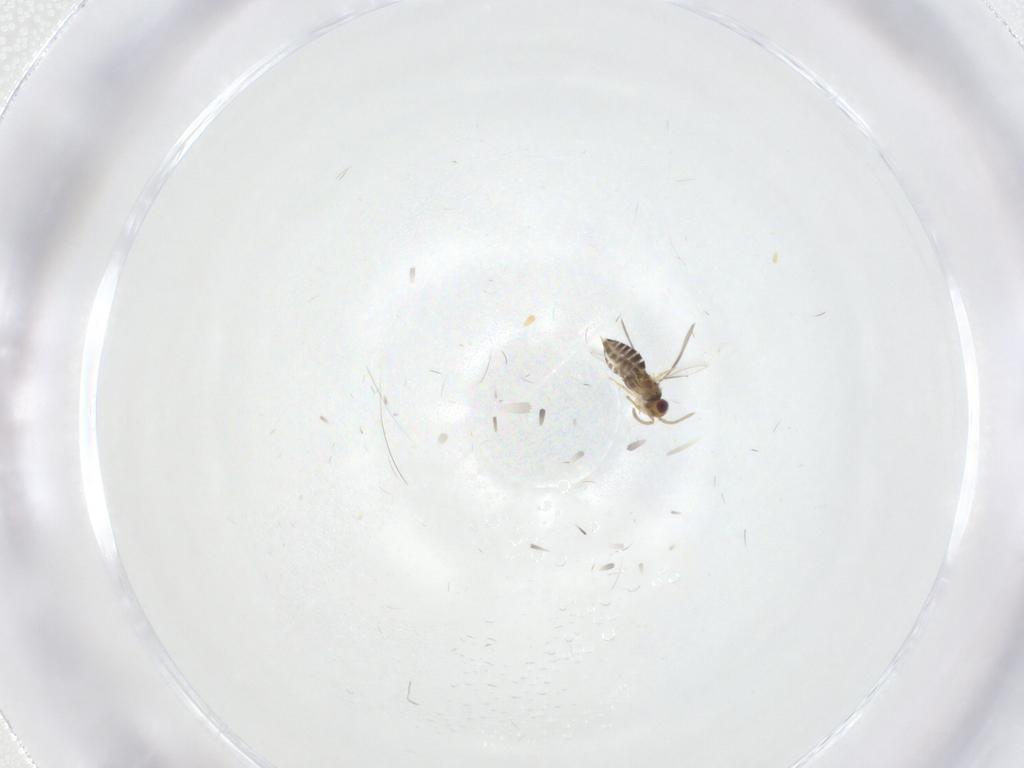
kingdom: Animalia
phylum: Arthropoda
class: Insecta
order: Hymenoptera
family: Aphelinidae
